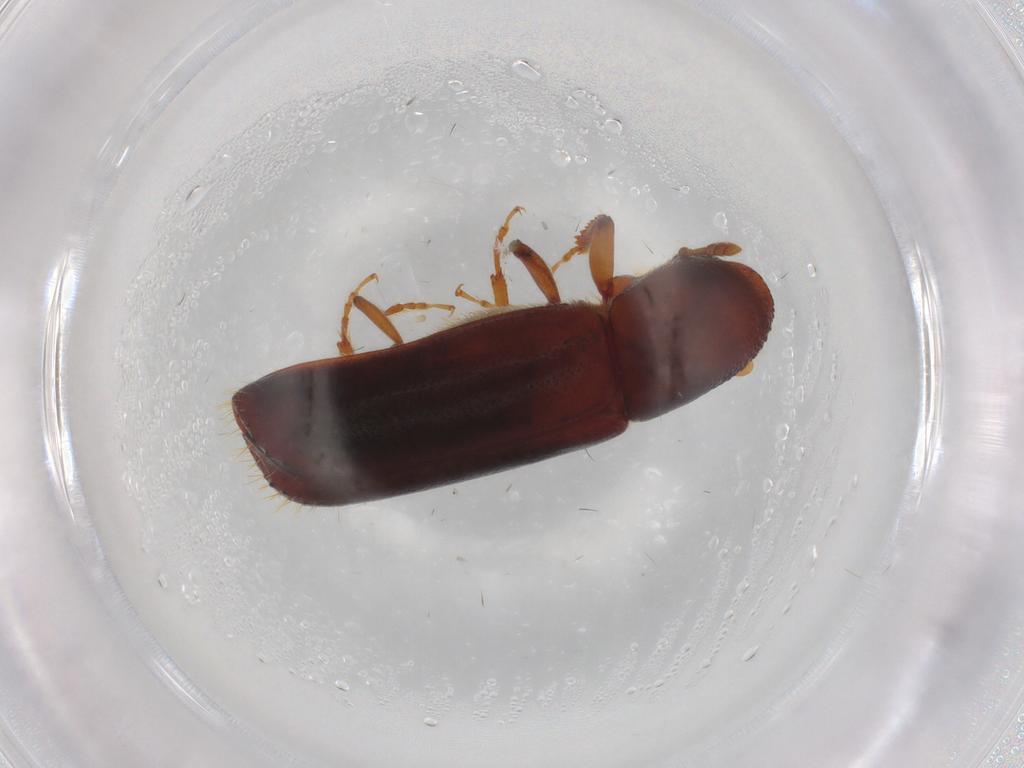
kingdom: Animalia
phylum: Arthropoda
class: Insecta
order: Coleoptera
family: Curculionidae
